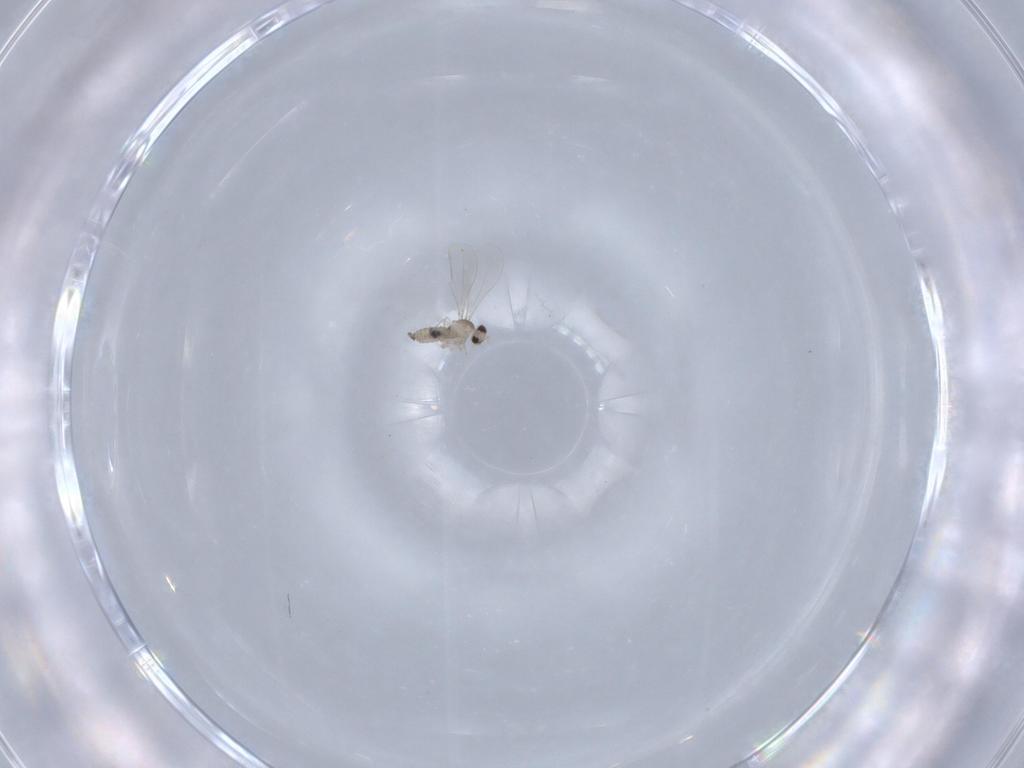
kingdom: Animalia
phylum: Arthropoda
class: Insecta
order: Diptera
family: Cecidomyiidae
